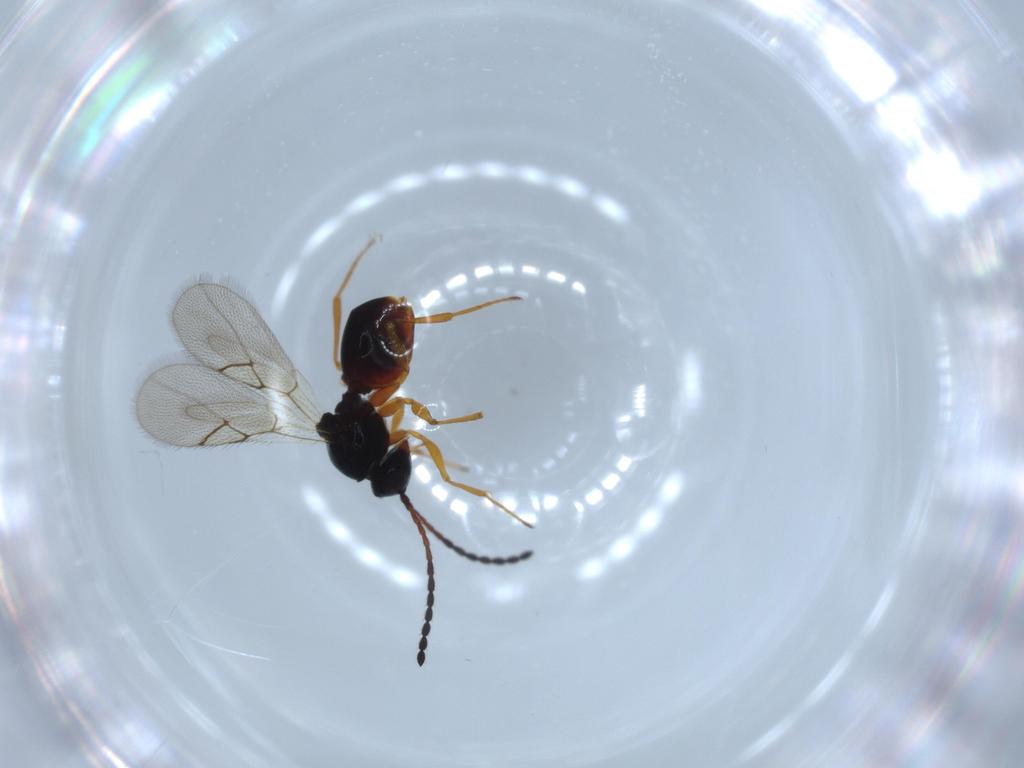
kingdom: Animalia
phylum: Arthropoda
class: Insecta
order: Hymenoptera
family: Figitidae
